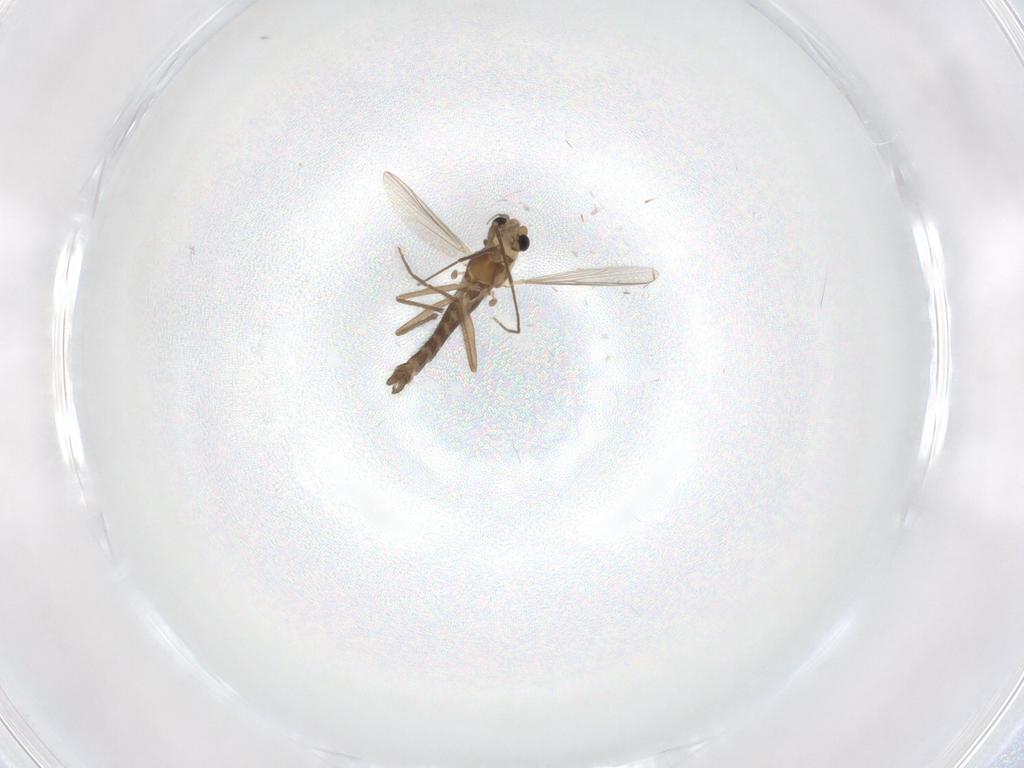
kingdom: Animalia
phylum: Arthropoda
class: Insecta
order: Diptera
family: Chironomidae
